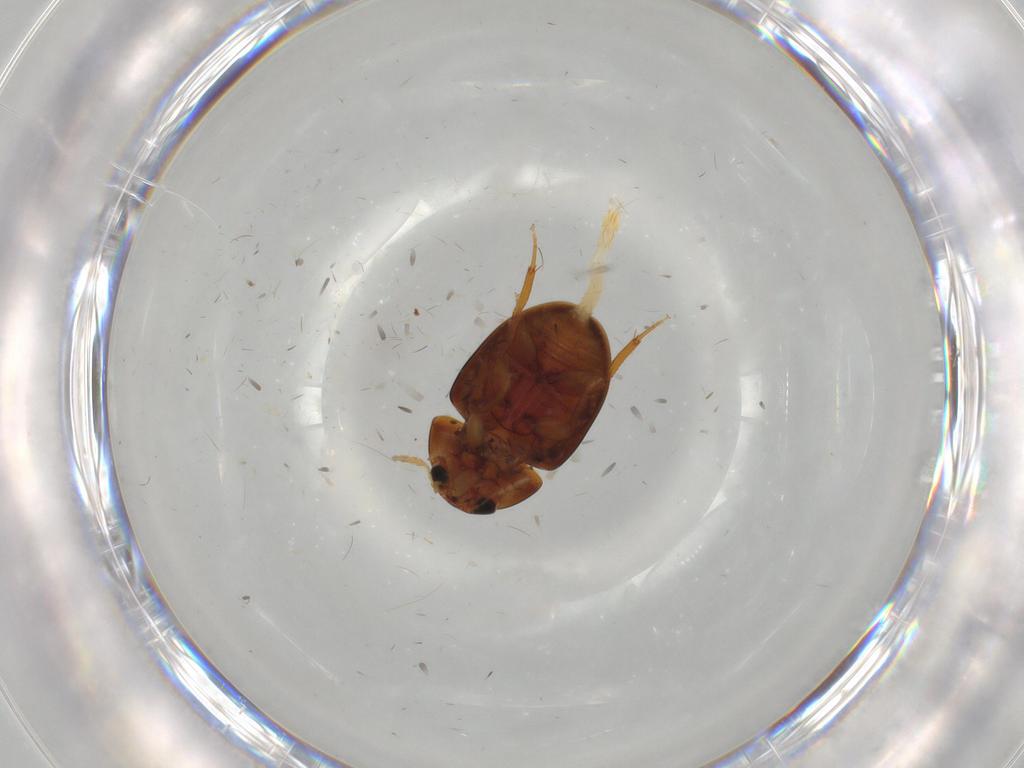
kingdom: Animalia
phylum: Arthropoda
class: Insecta
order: Coleoptera
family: Phalacridae
